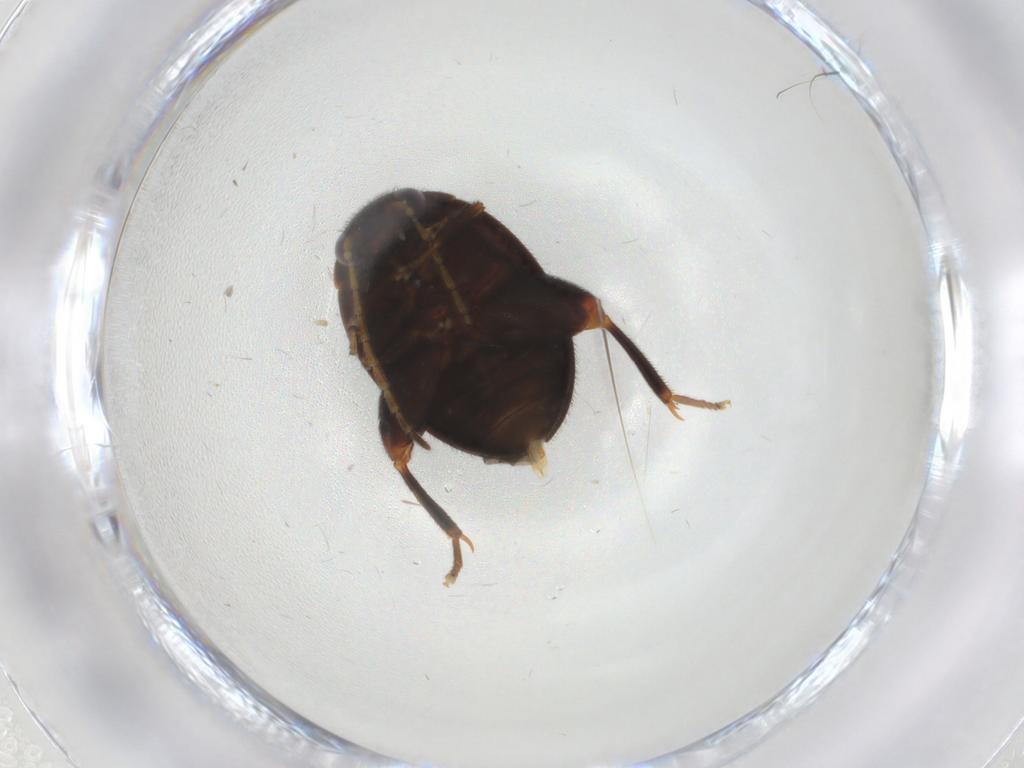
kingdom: Animalia
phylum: Arthropoda
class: Insecta
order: Coleoptera
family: Scirtidae
